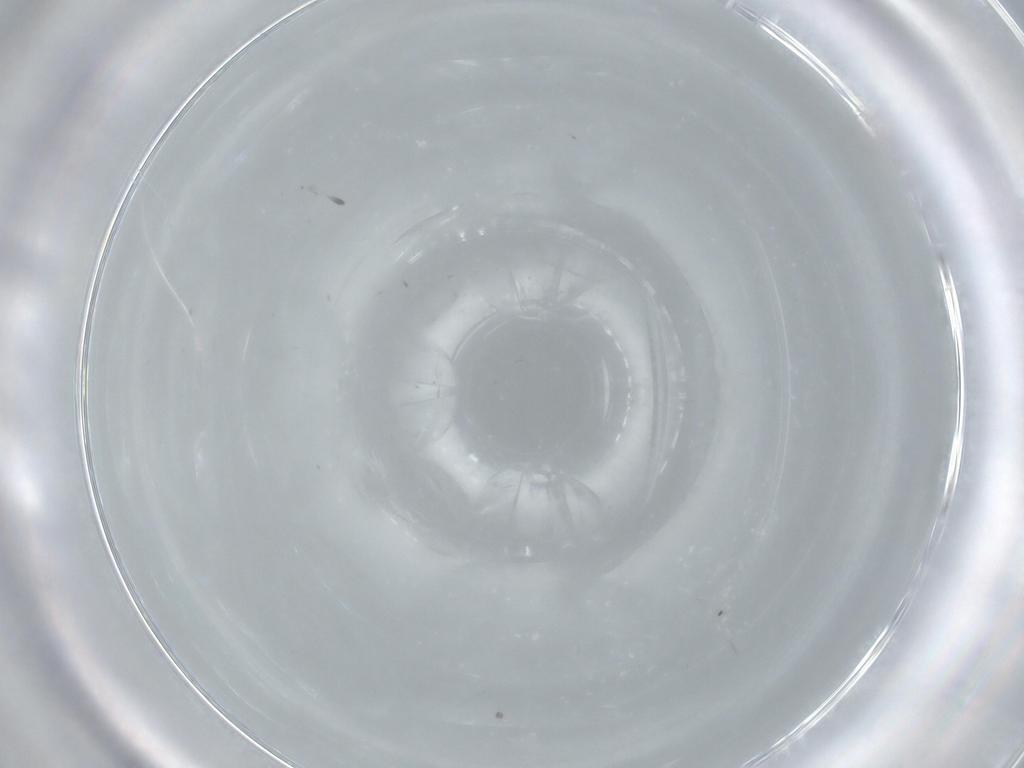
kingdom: Animalia
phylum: Arthropoda
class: Insecta
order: Diptera
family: Cecidomyiidae
